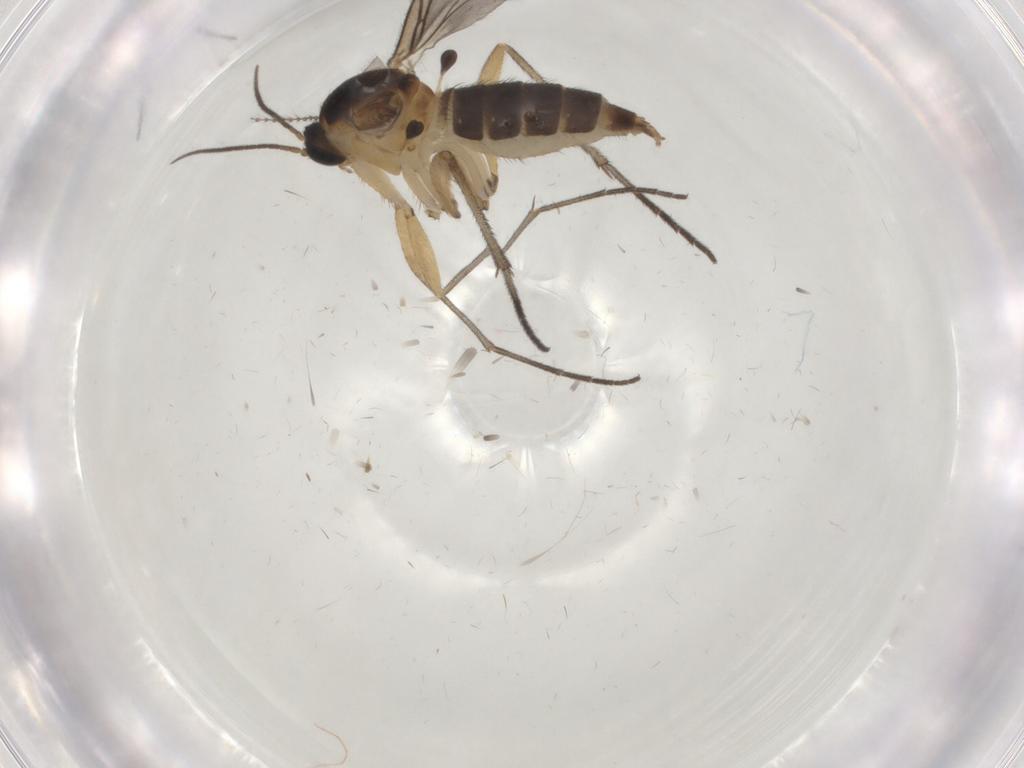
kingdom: Animalia
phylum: Arthropoda
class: Insecta
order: Diptera
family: Sciaridae
